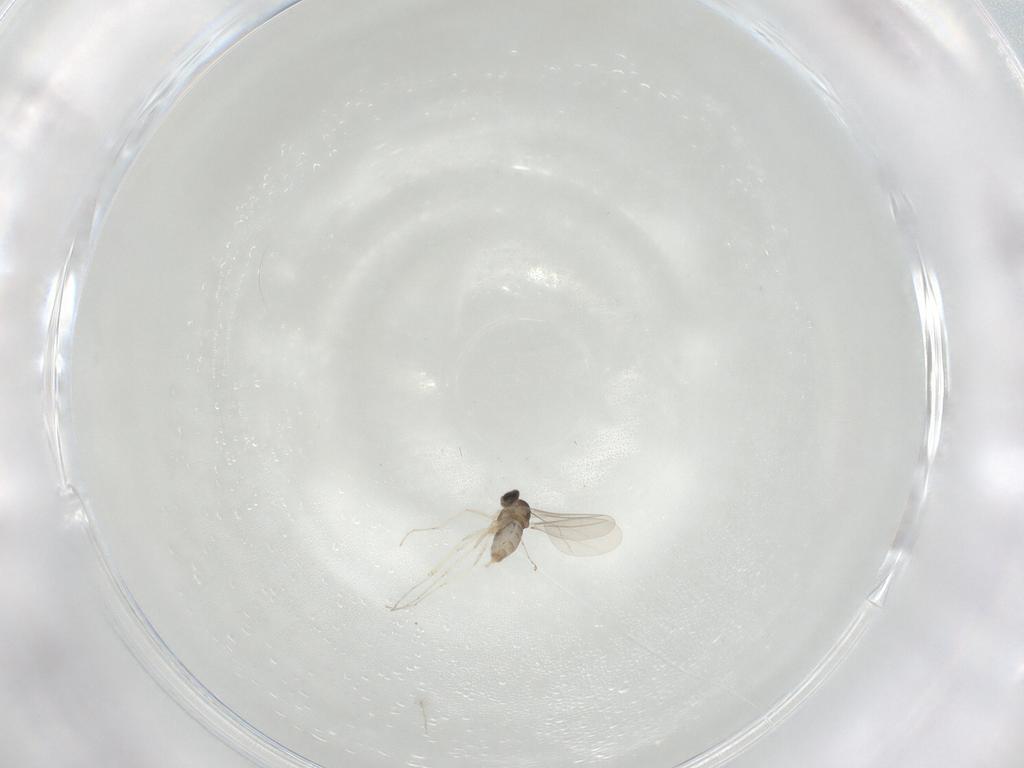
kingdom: Animalia
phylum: Arthropoda
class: Insecta
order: Diptera
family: Cecidomyiidae
